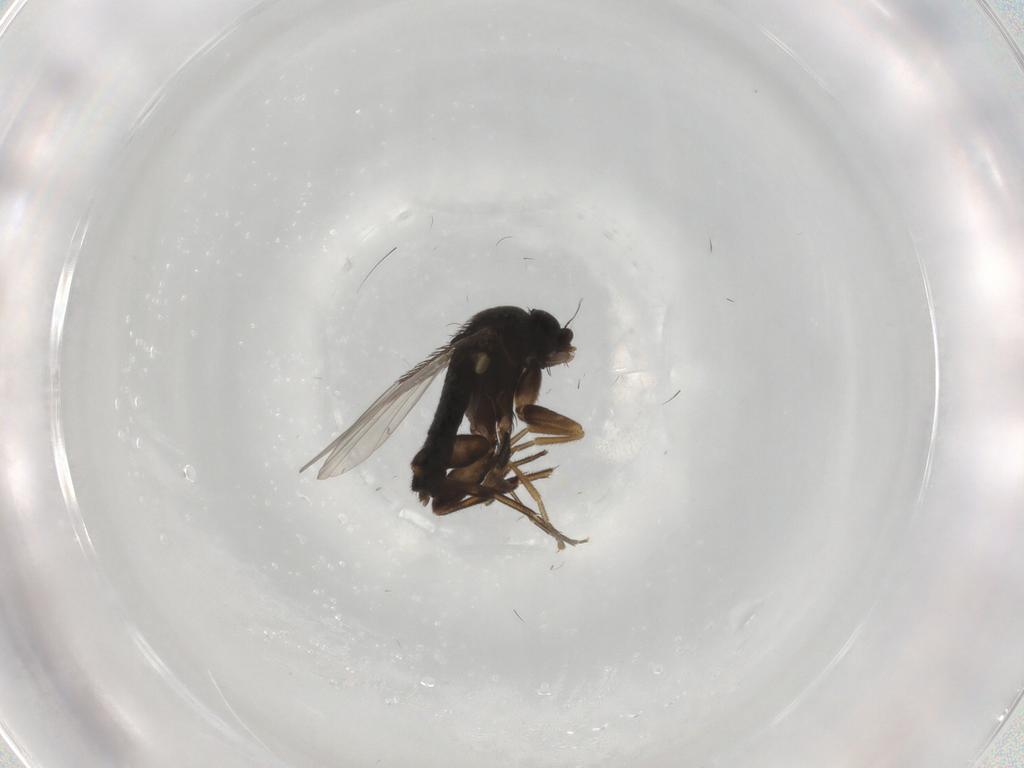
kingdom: Animalia
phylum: Arthropoda
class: Insecta
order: Diptera
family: Phoridae
